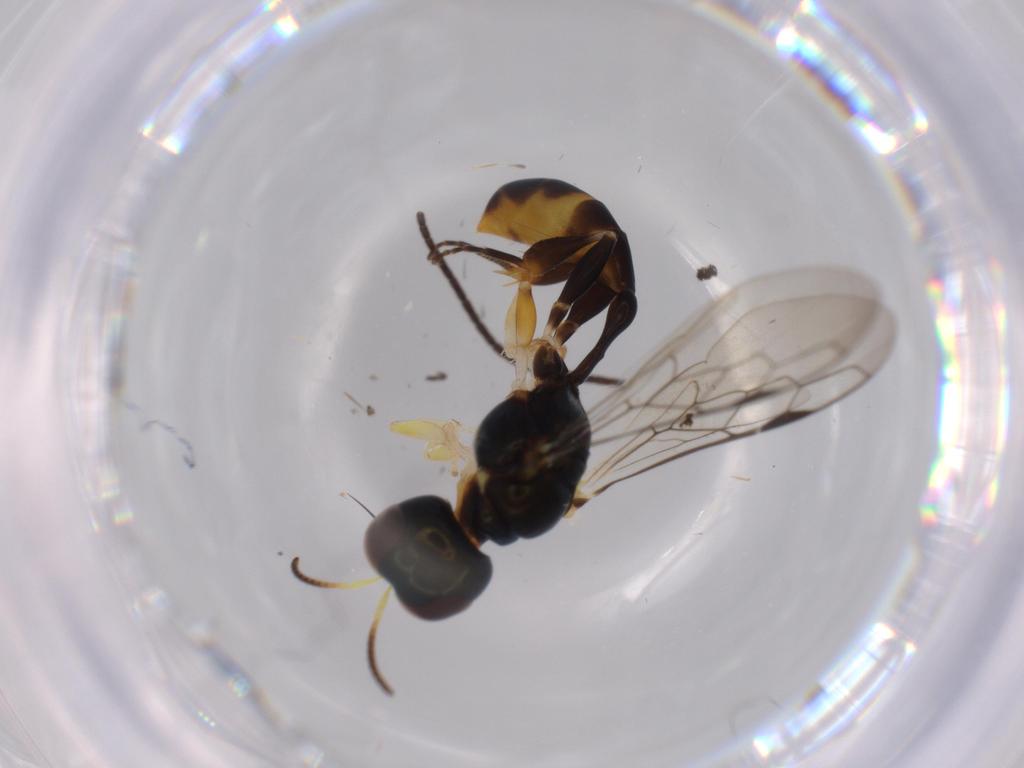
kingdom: Animalia
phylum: Arthropoda
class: Insecta
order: Hymenoptera
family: Crabronidae
